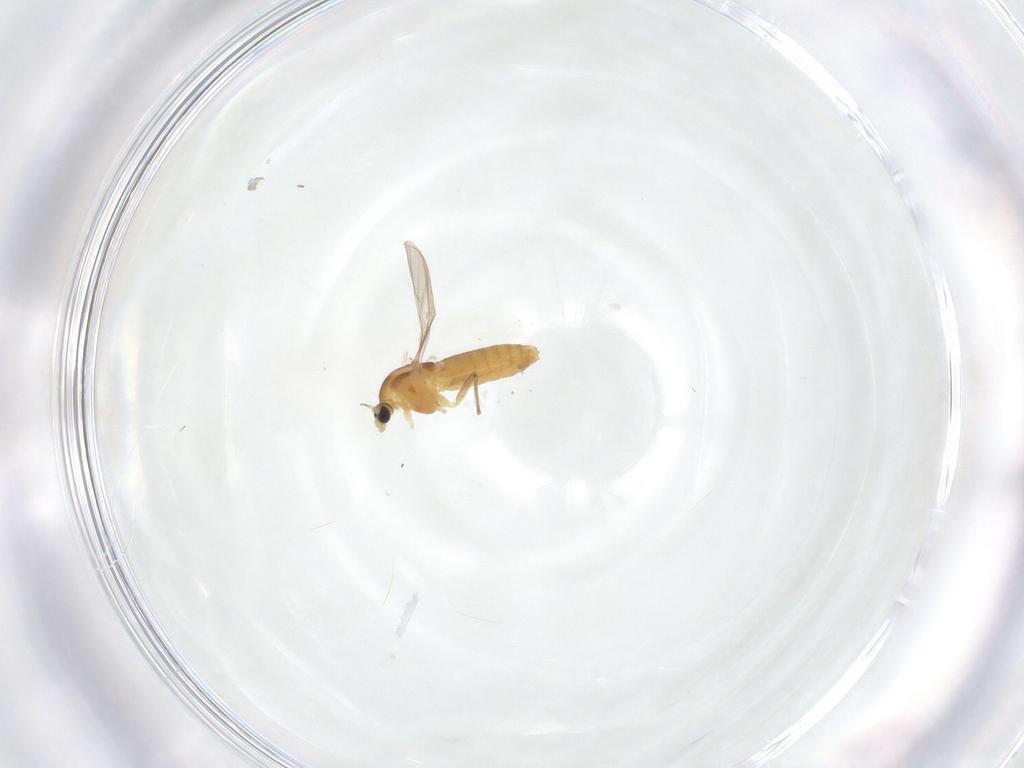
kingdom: Animalia
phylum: Arthropoda
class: Insecta
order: Diptera
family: Chironomidae
